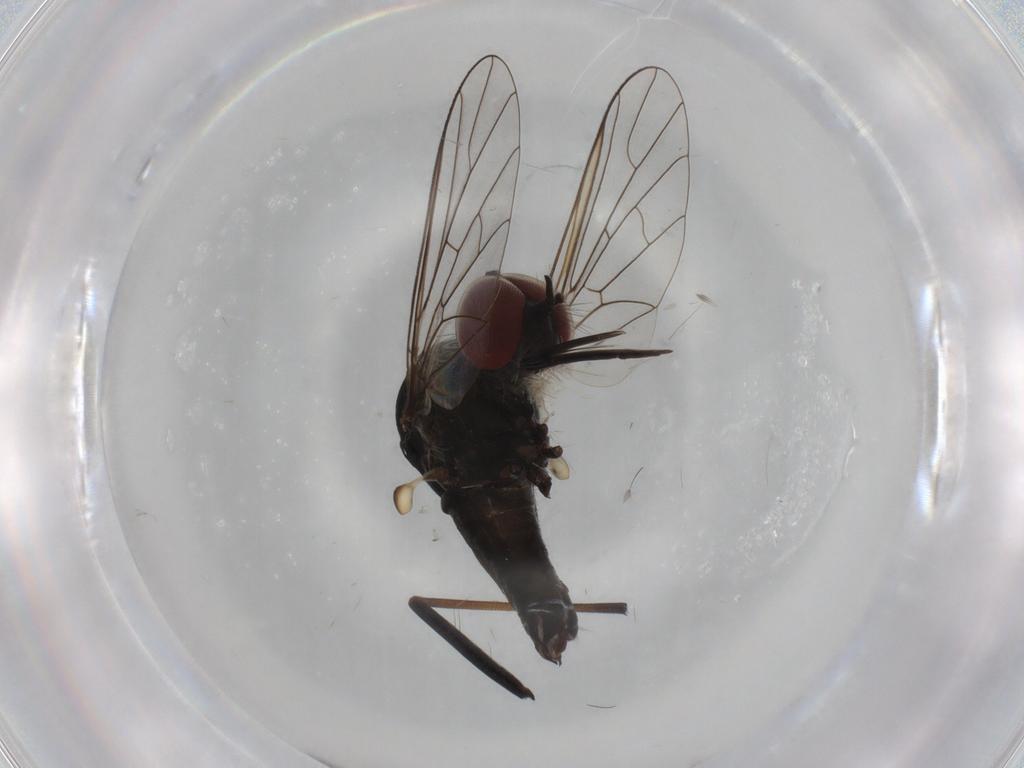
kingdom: Animalia
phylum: Arthropoda
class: Insecta
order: Diptera
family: Bombyliidae
